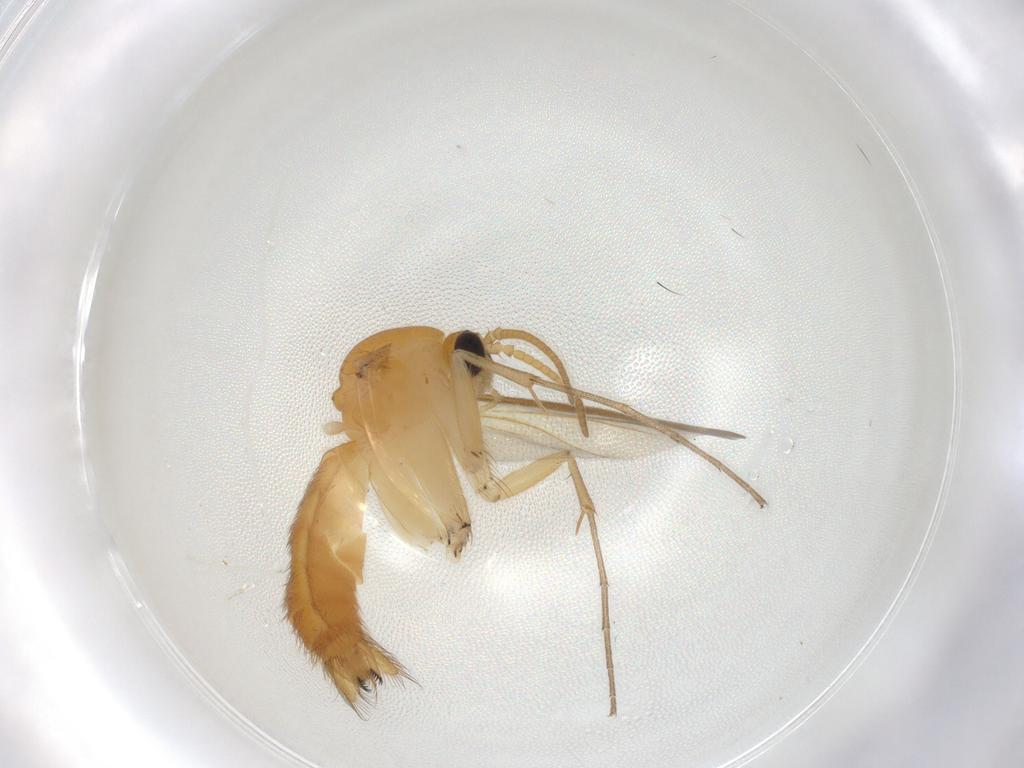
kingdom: Animalia
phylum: Arthropoda
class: Insecta
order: Diptera
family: Mycetophilidae
